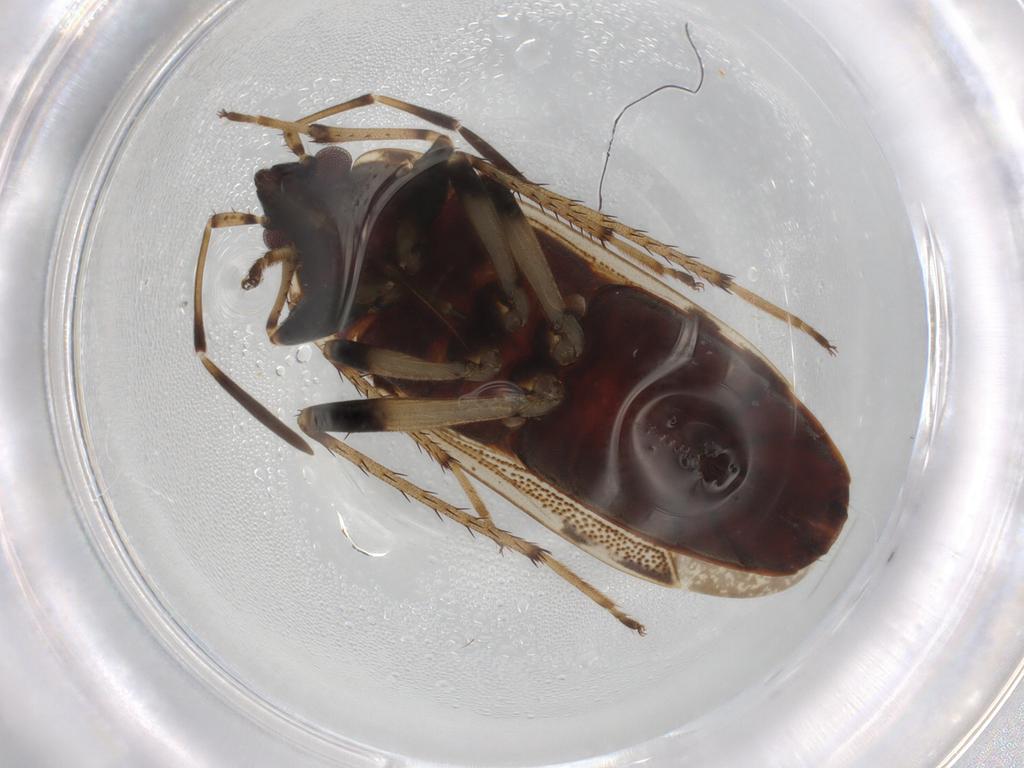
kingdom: Animalia
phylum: Arthropoda
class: Insecta
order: Hemiptera
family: Rhyparochromidae
